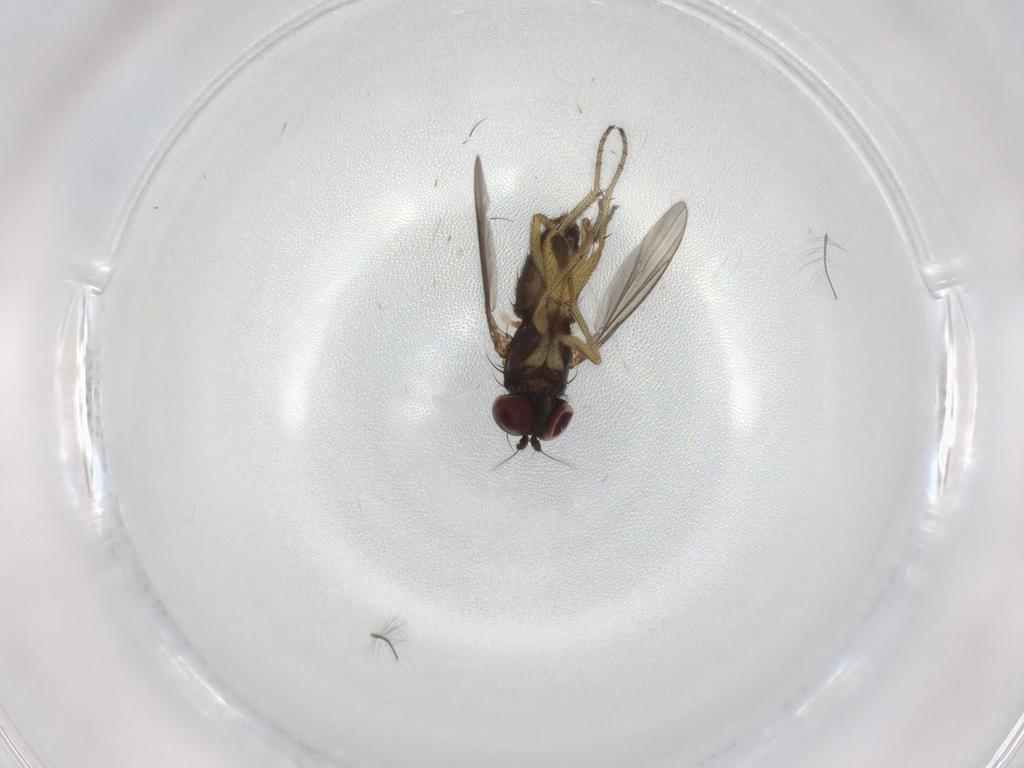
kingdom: Animalia
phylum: Arthropoda
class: Insecta
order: Diptera
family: Chironomidae
